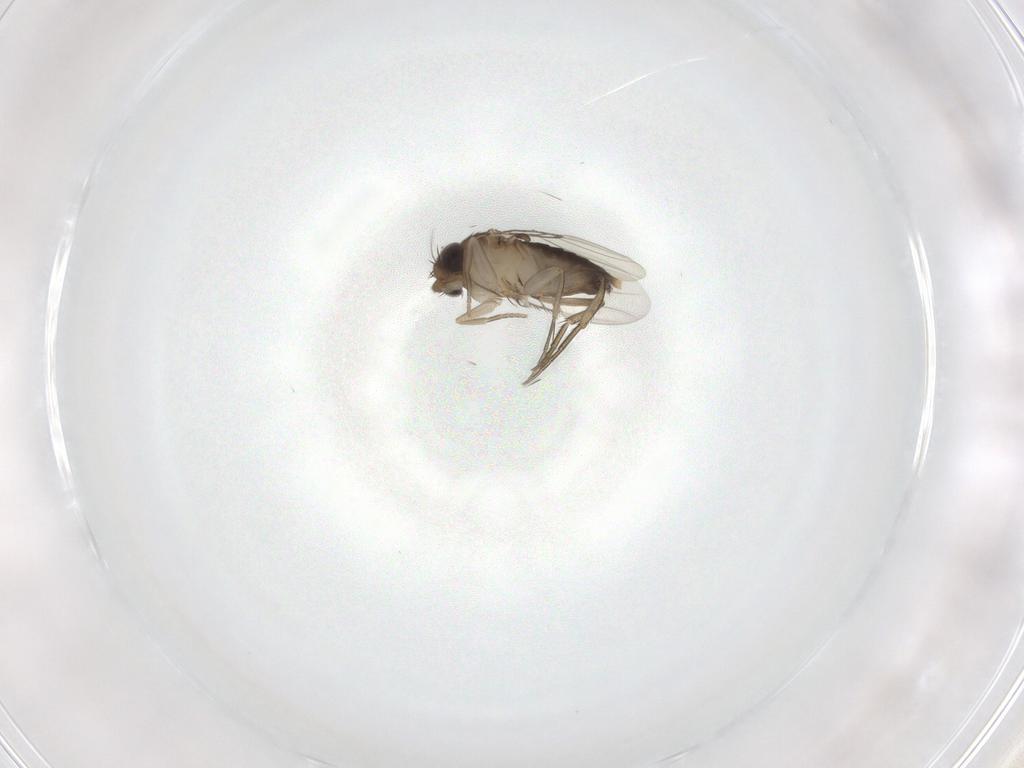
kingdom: Animalia
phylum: Arthropoda
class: Insecta
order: Diptera
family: Phoridae
